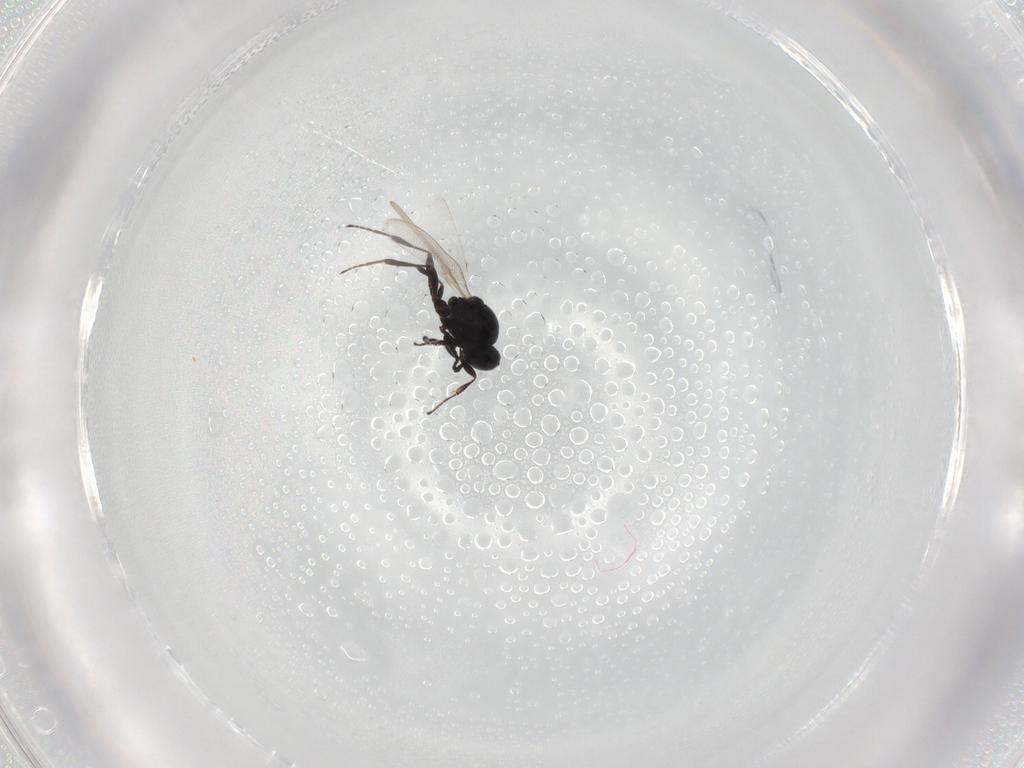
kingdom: Animalia
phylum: Arthropoda
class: Insecta
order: Hymenoptera
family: Platygastridae
